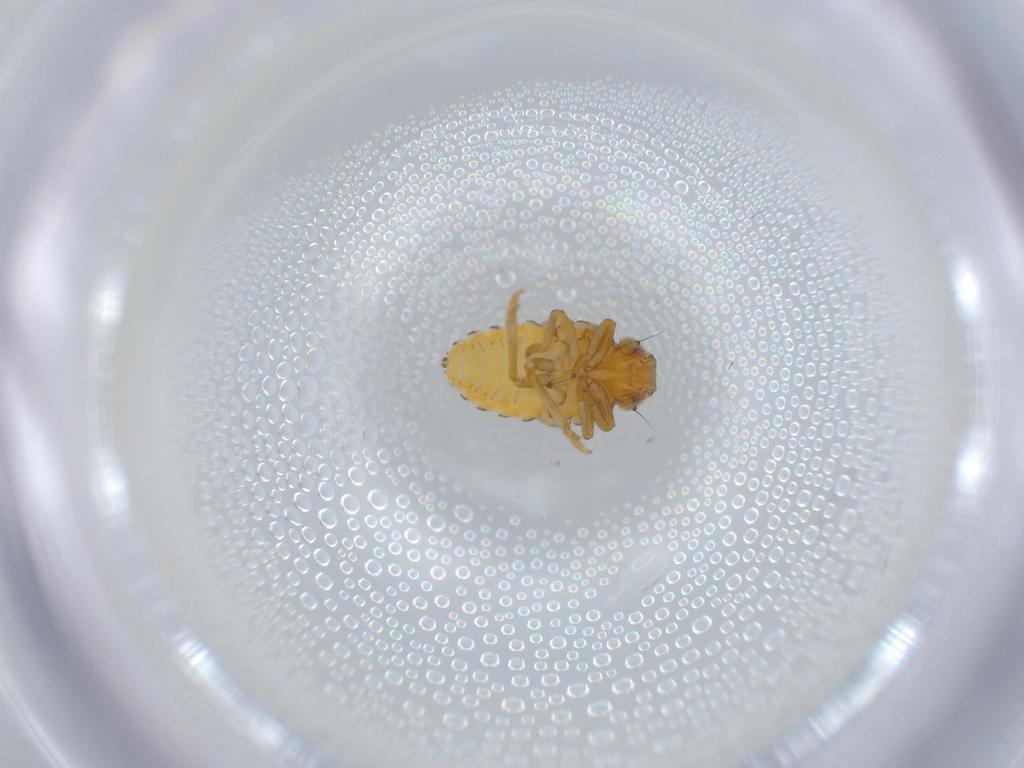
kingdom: Animalia
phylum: Arthropoda
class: Insecta
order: Hemiptera
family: Issidae
